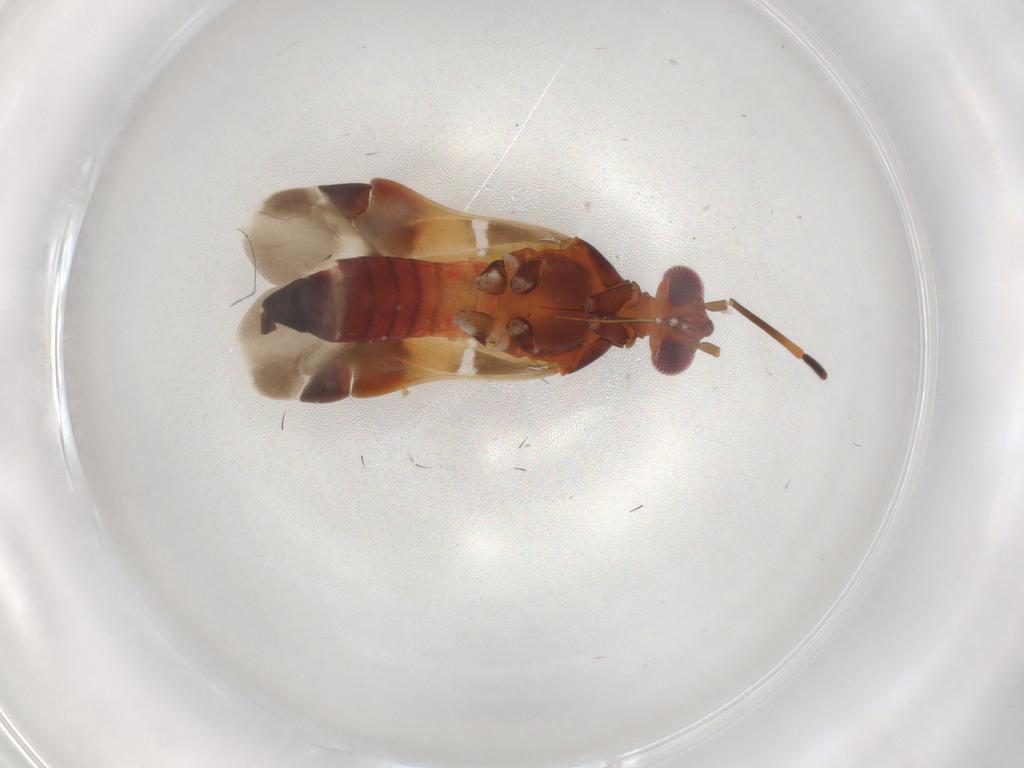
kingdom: Animalia
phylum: Arthropoda
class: Insecta
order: Hemiptera
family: Miridae
